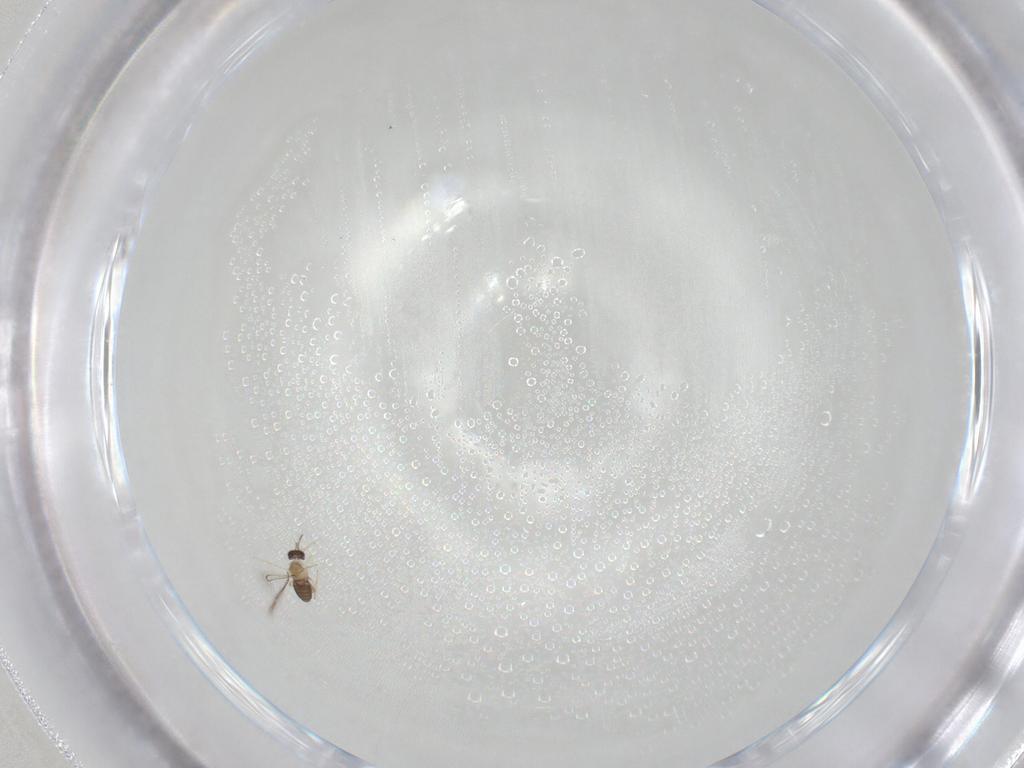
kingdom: Animalia
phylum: Arthropoda
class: Insecta
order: Hymenoptera
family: Mymaridae
